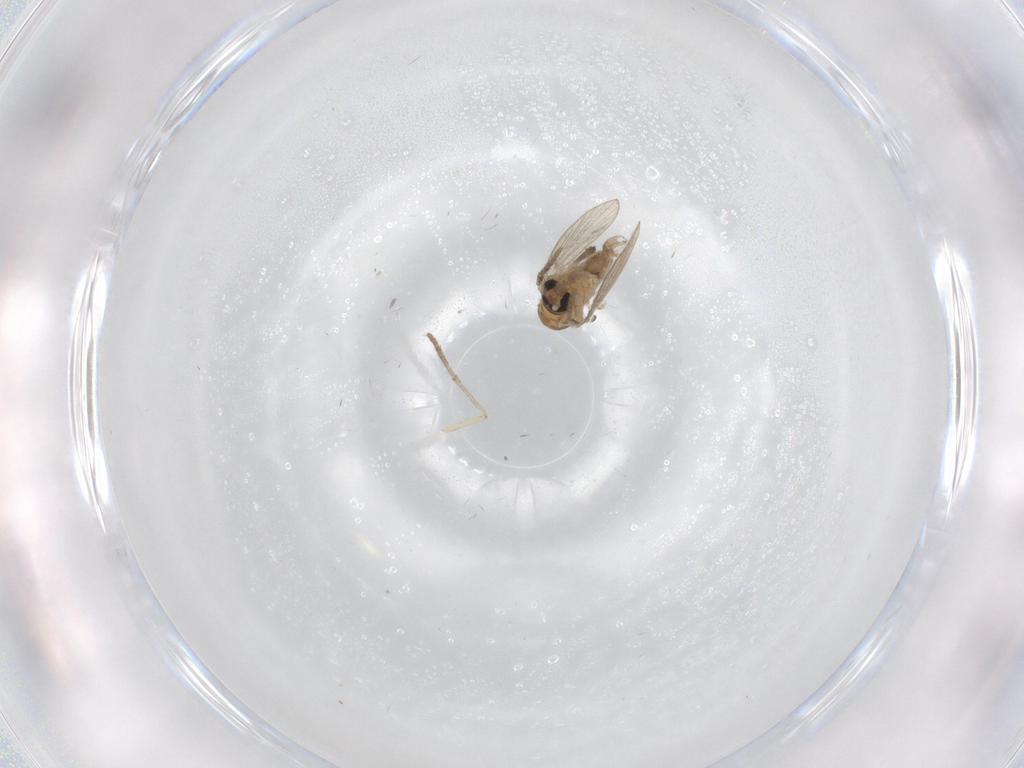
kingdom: Animalia
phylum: Arthropoda
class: Insecta
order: Diptera
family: Psychodidae
